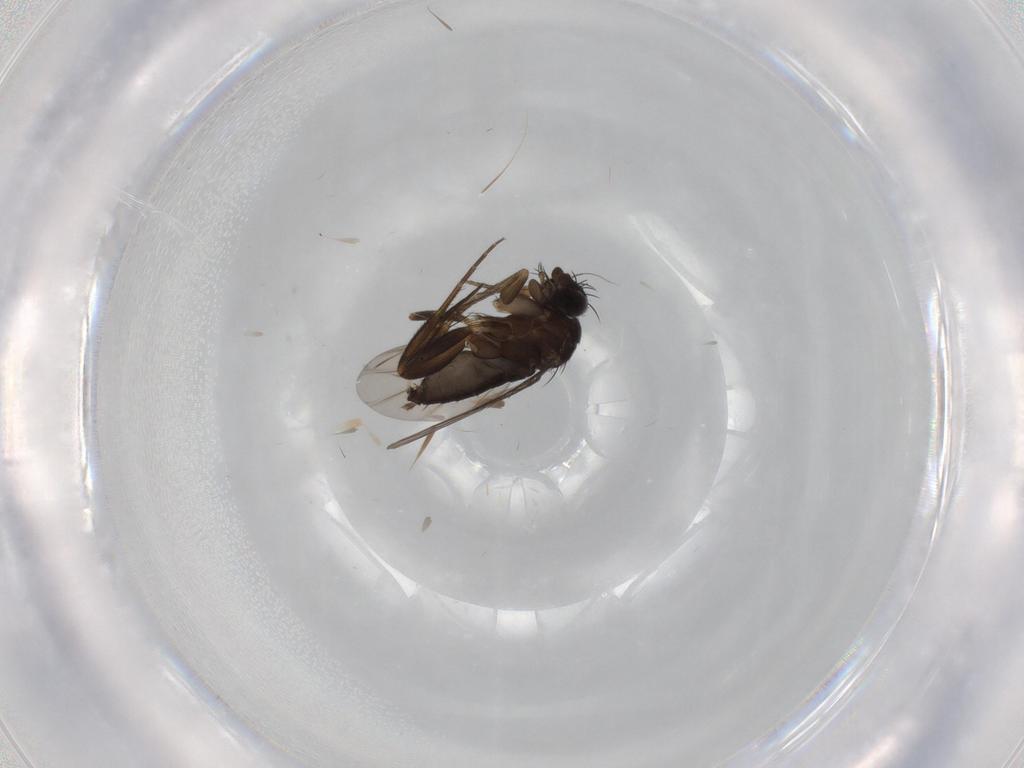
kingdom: Animalia
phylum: Arthropoda
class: Insecta
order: Diptera
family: Phoridae
